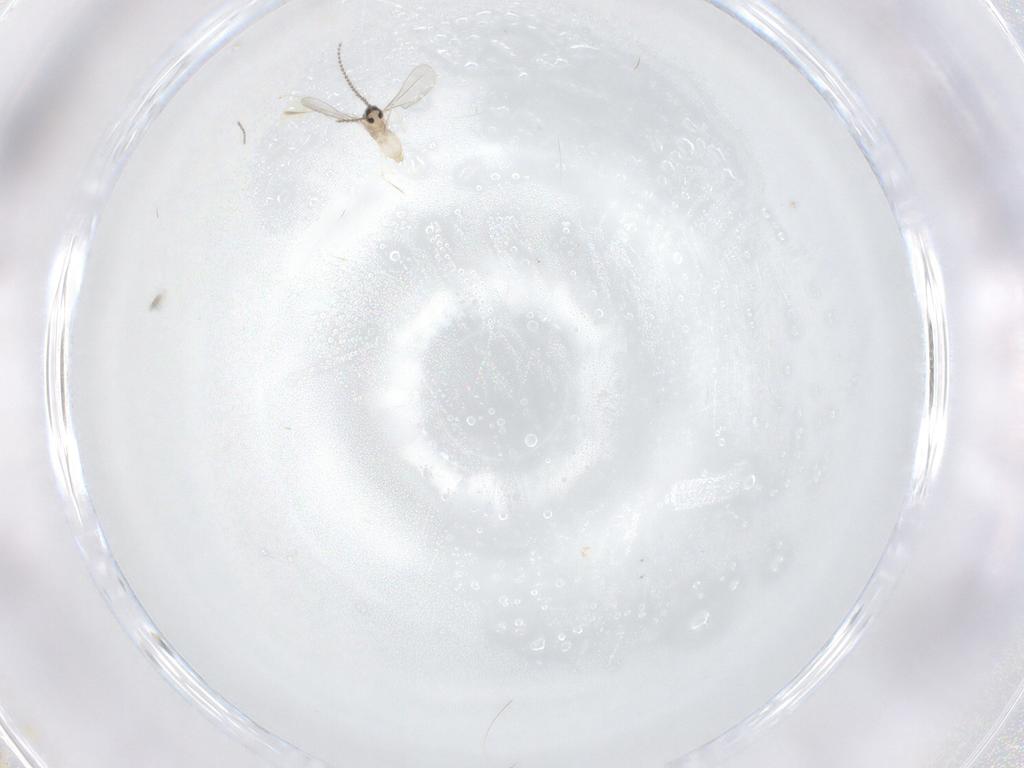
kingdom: Animalia
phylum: Arthropoda
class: Insecta
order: Diptera
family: Cecidomyiidae
